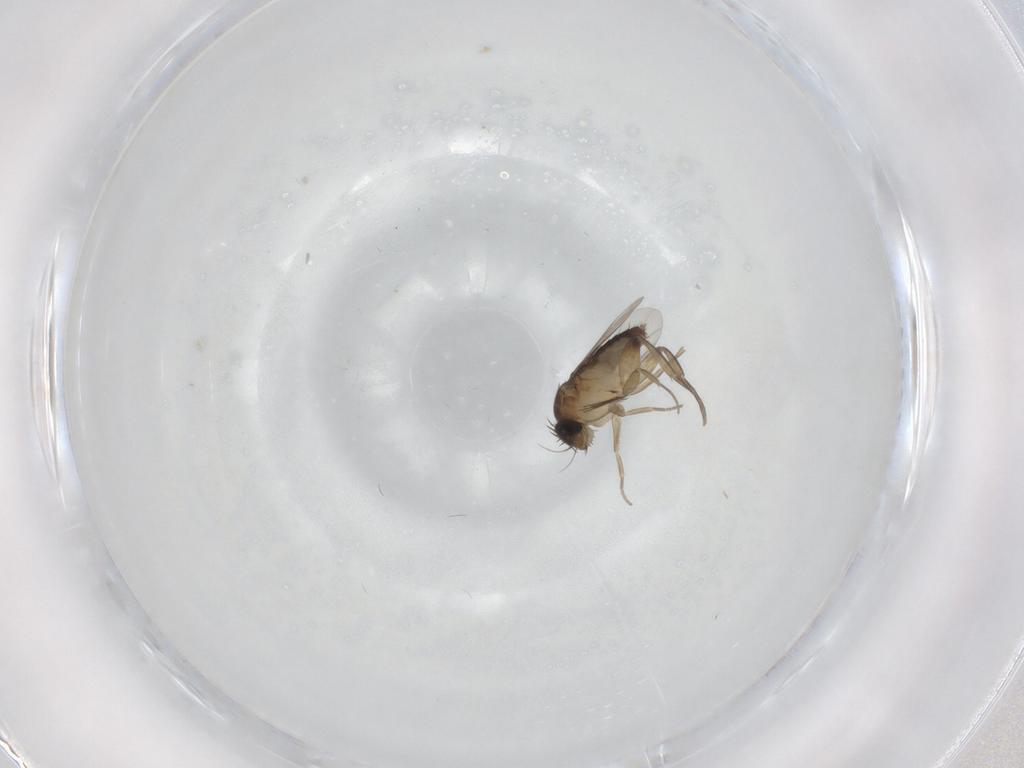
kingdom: Animalia
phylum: Arthropoda
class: Insecta
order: Diptera
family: Phoridae
